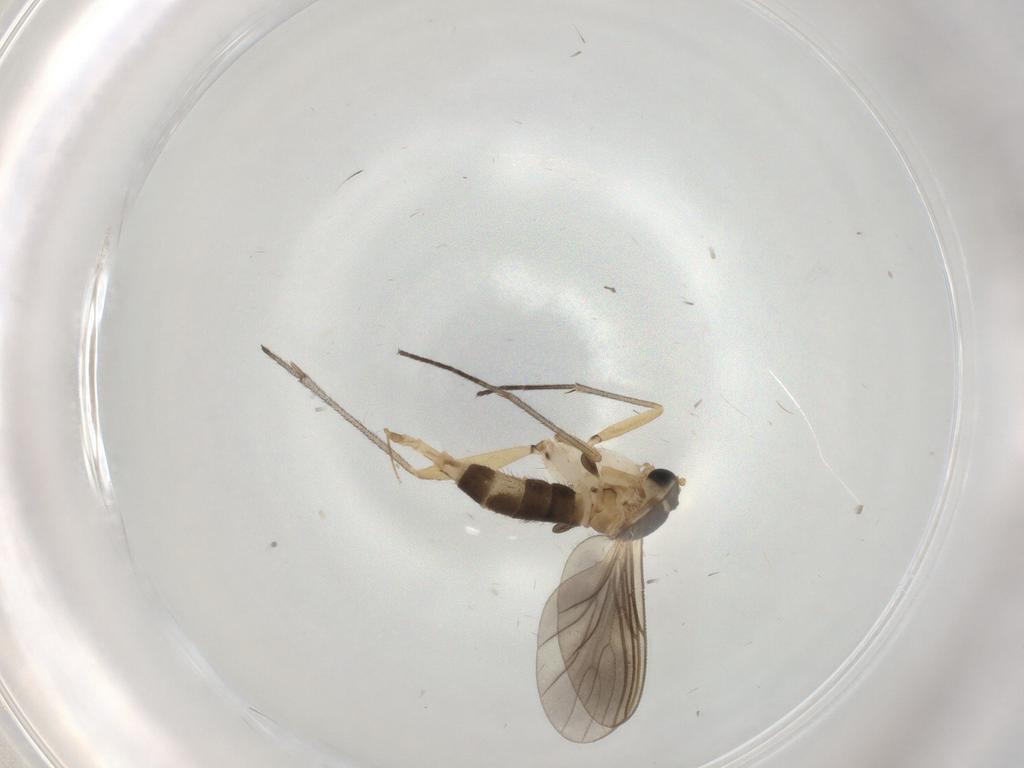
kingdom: Animalia
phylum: Arthropoda
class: Insecta
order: Diptera
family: Sciaridae
